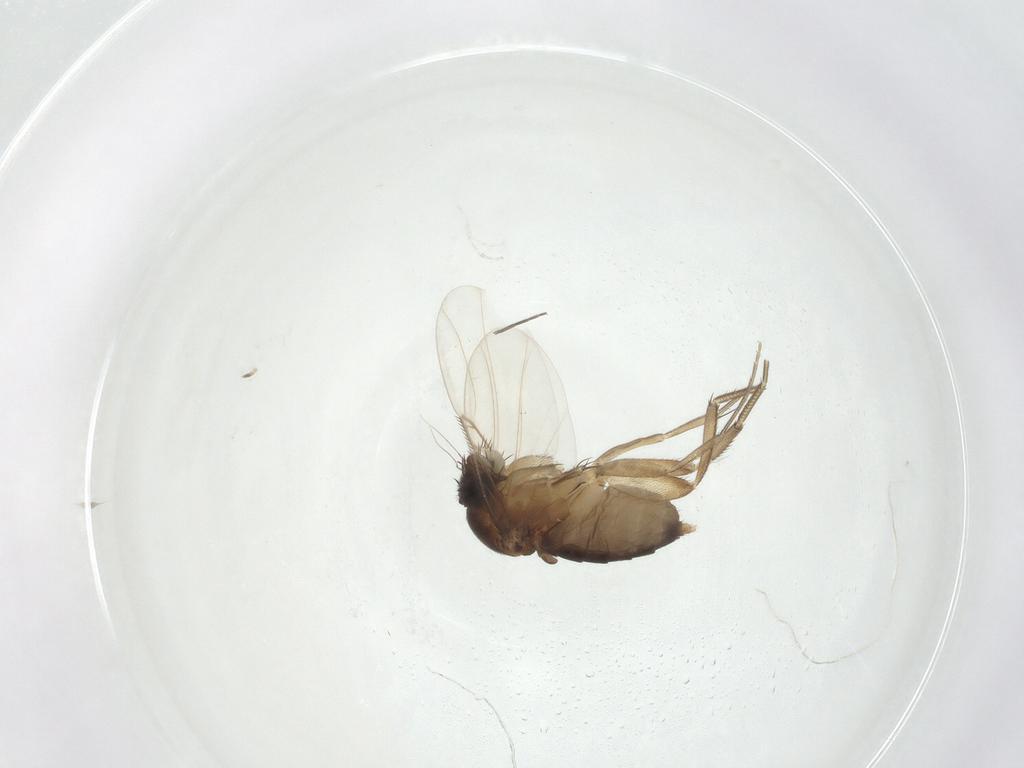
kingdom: Animalia
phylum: Arthropoda
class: Insecta
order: Diptera
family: Phoridae
